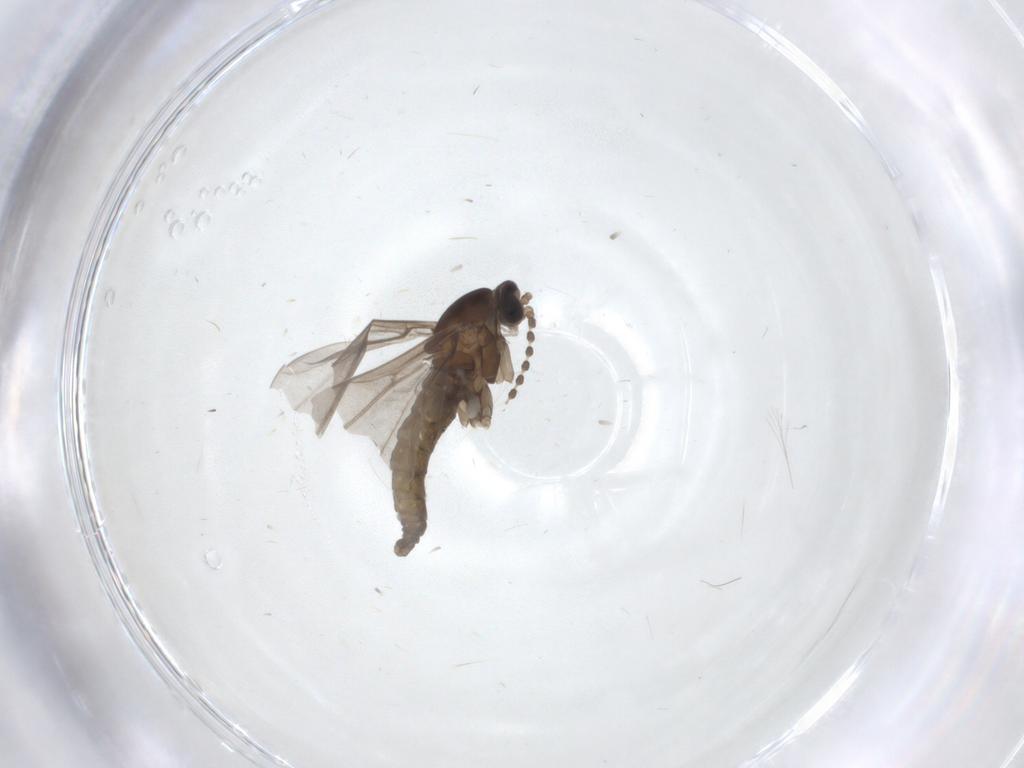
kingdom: Animalia
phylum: Arthropoda
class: Insecta
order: Diptera
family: Cecidomyiidae
